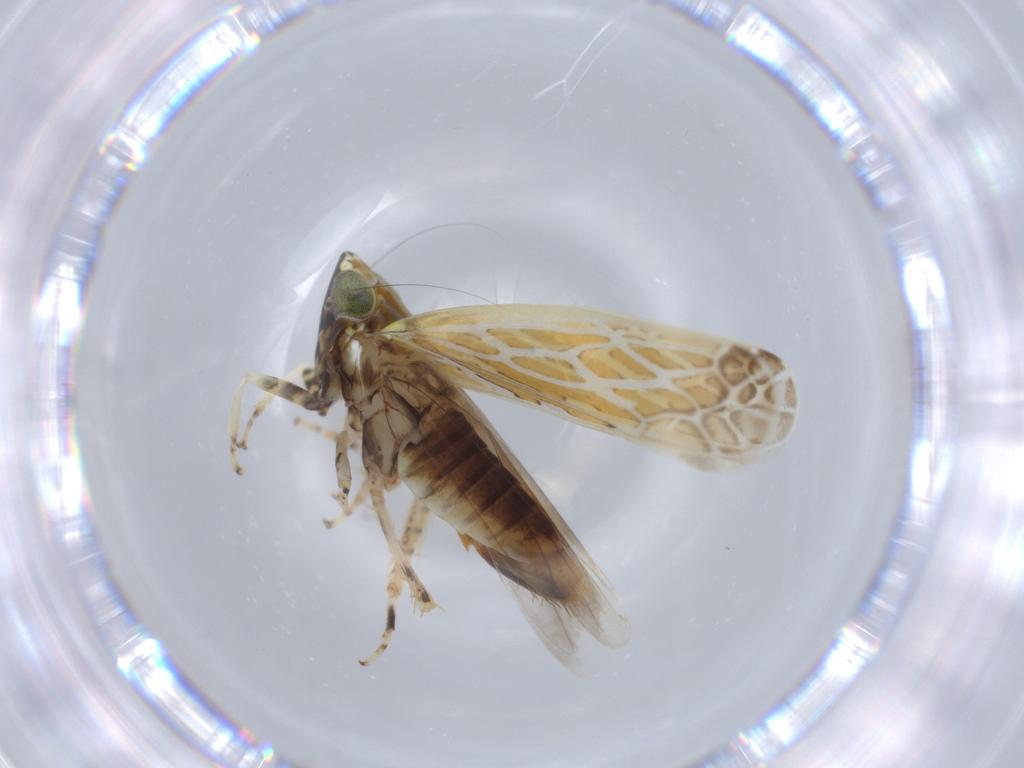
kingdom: Animalia
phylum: Arthropoda
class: Insecta
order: Hemiptera
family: Cicadellidae
